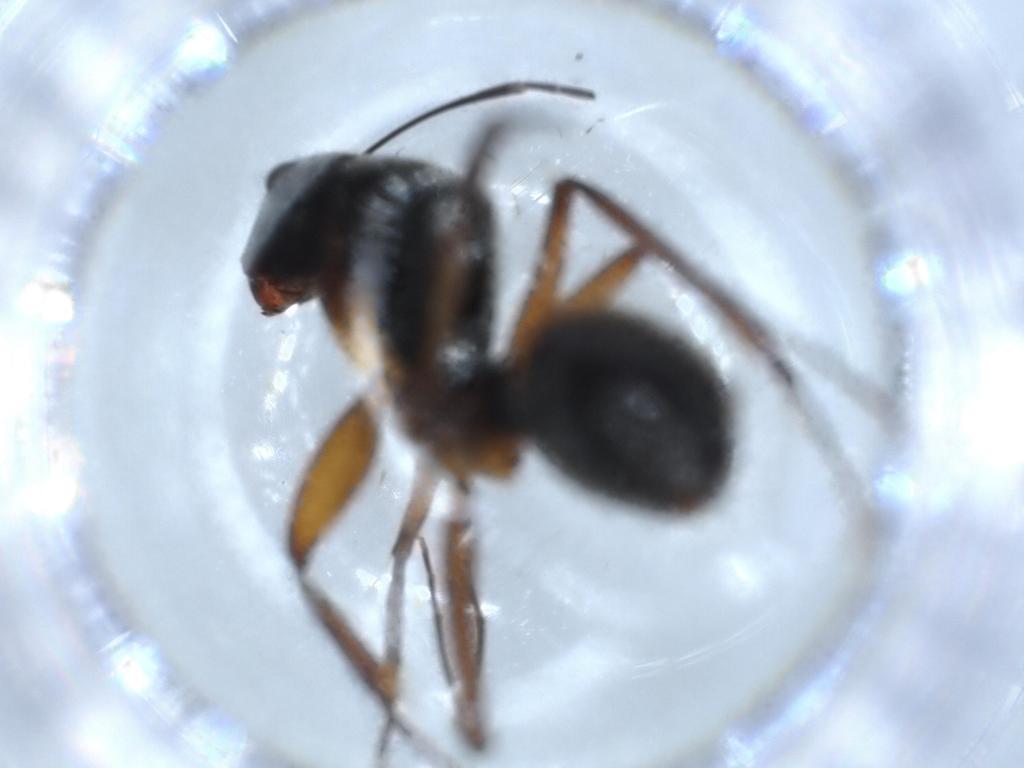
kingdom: Animalia
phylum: Arthropoda
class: Insecta
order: Hymenoptera
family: Formicidae
